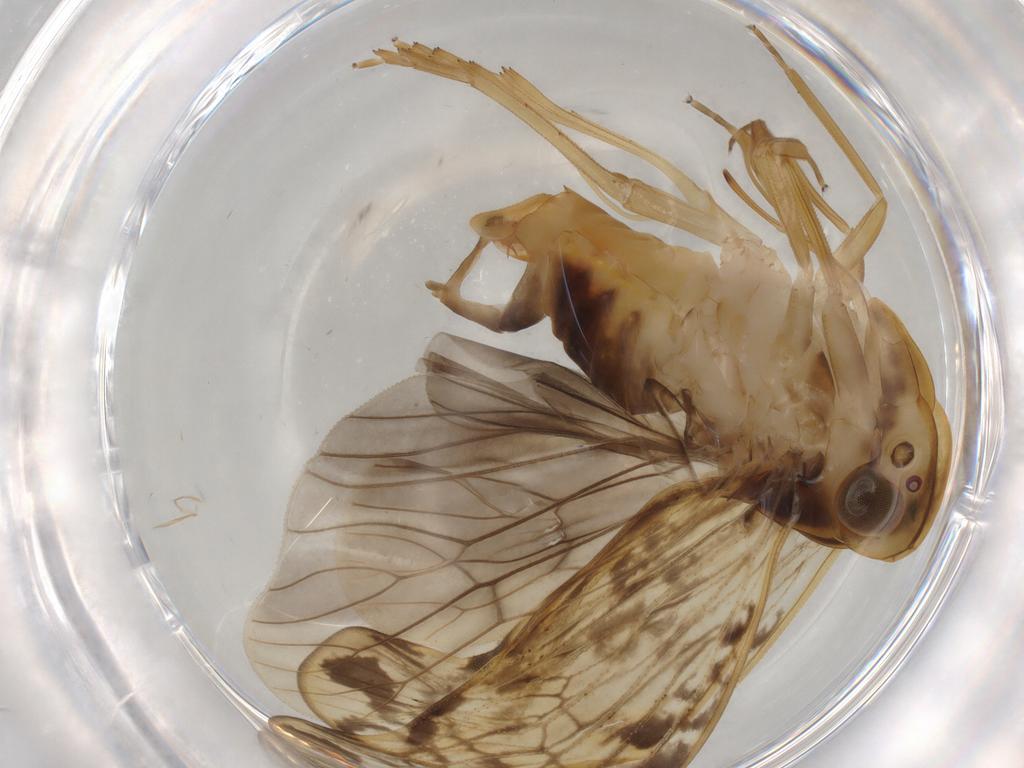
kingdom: Animalia
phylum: Arthropoda
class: Insecta
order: Hemiptera
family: Cixiidae
